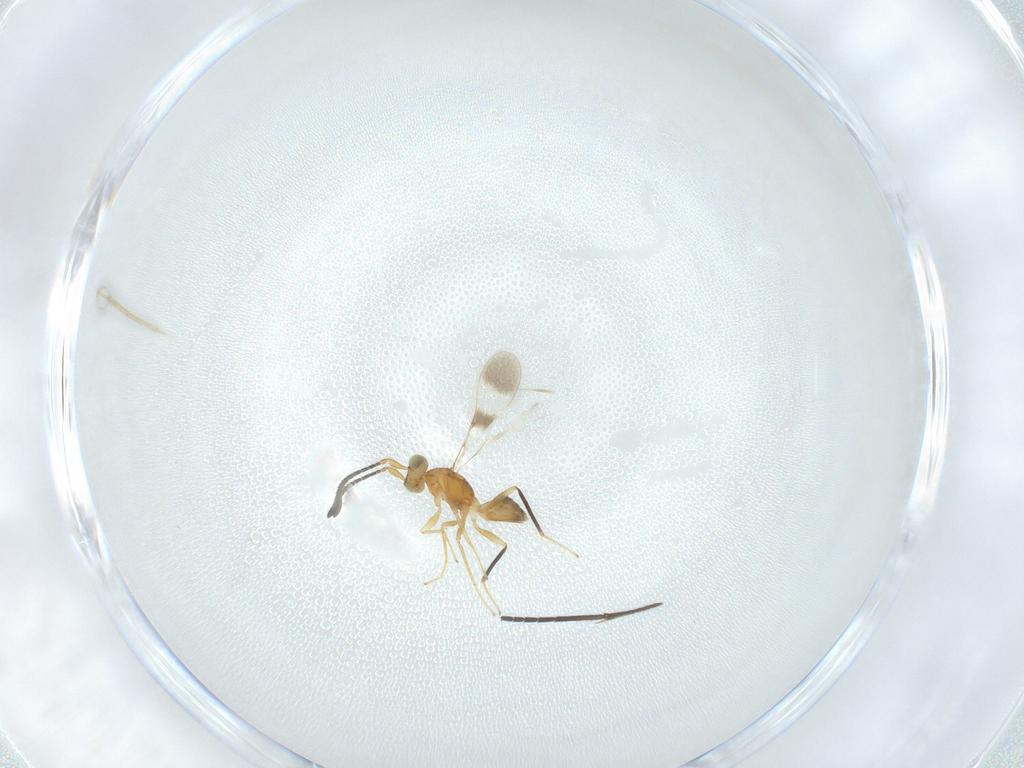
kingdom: Animalia
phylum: Arthropoda
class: Insecta
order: Hymenoptera
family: Mymaridae
